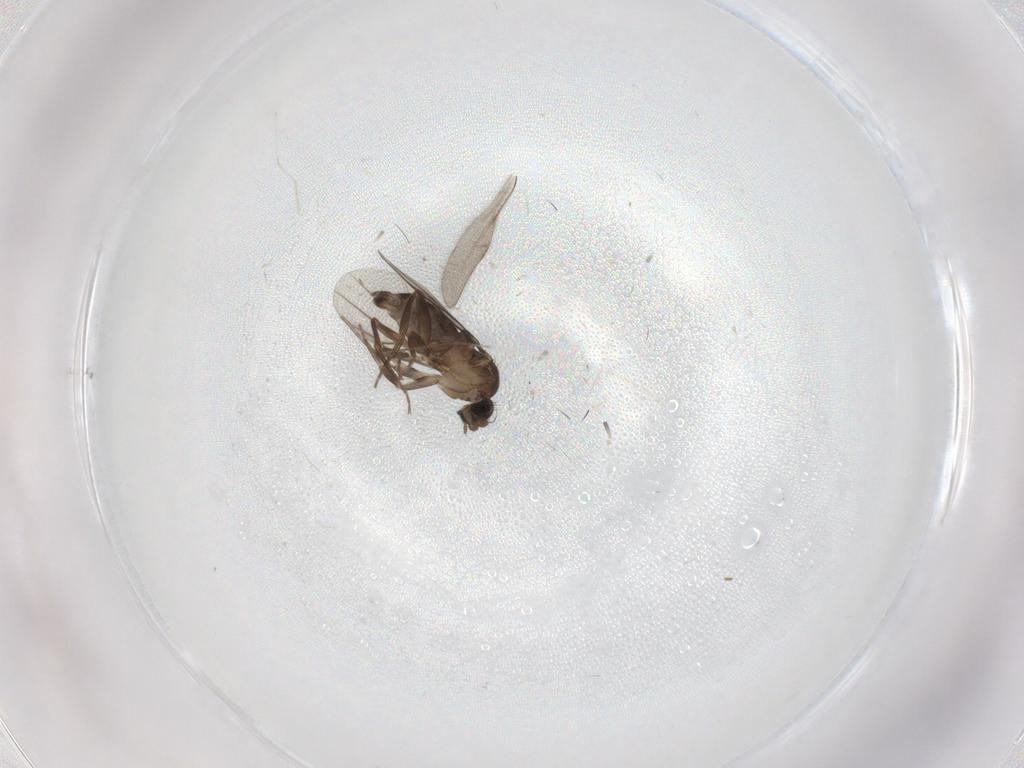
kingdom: Animalia
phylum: Arthropoda
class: Insecta
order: Diptera
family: Phoridae
